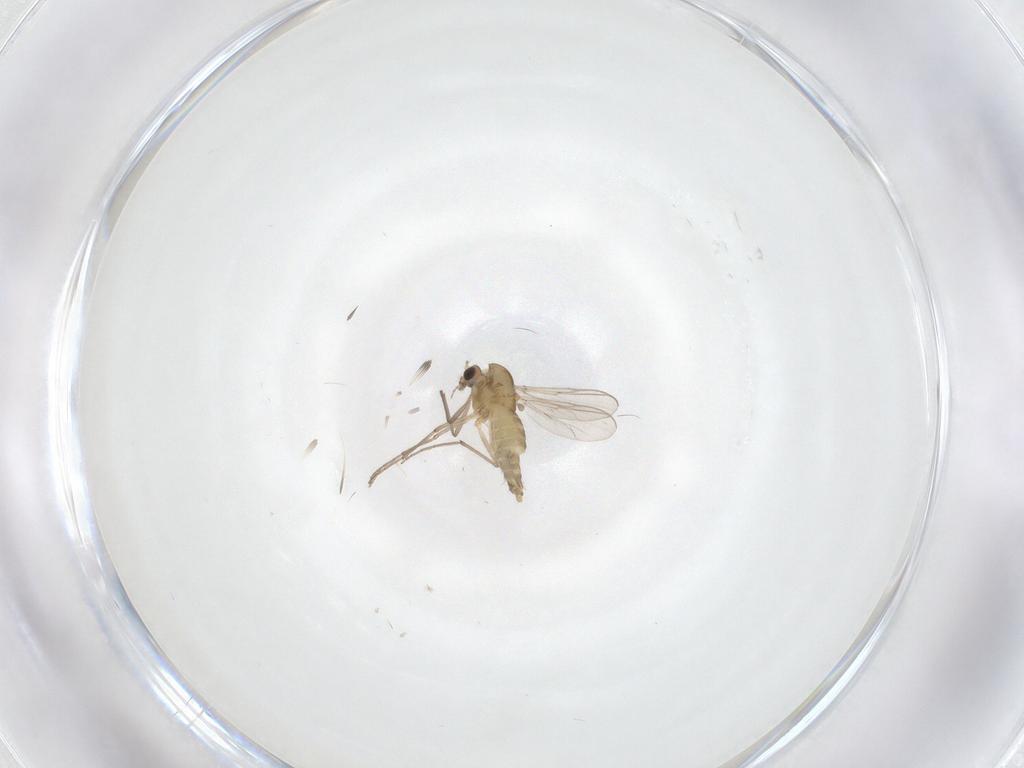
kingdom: Animalia
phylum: Arthropoda
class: Insecta
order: Diptera
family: Chironomidae
